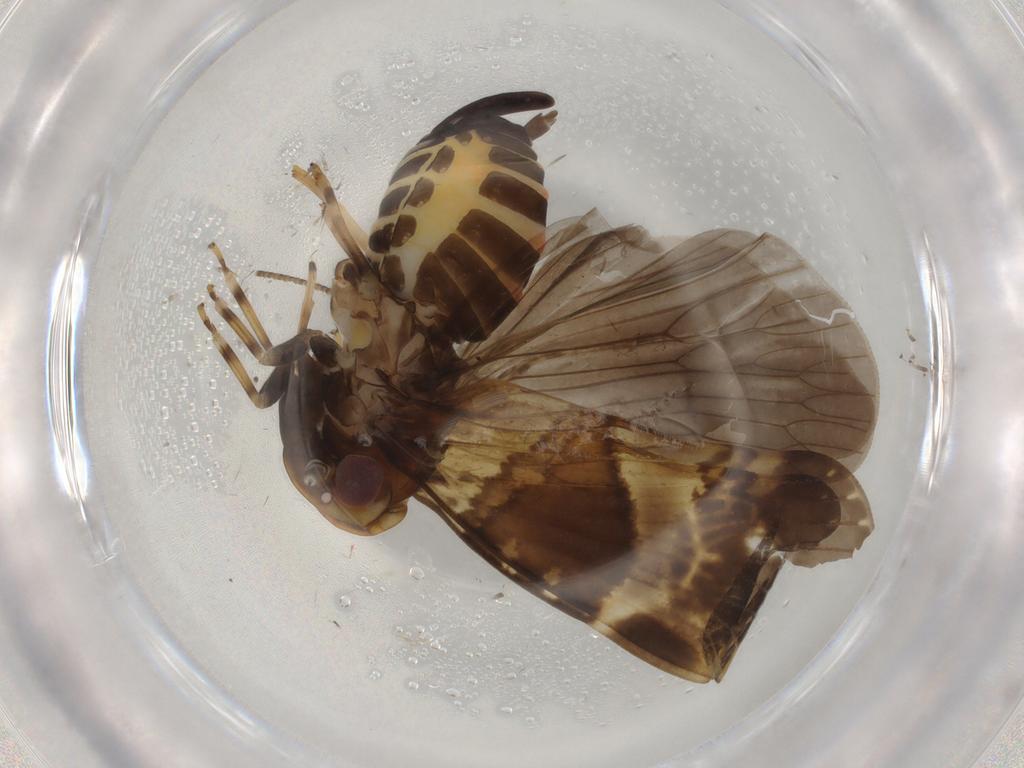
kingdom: Animalia
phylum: Arthropoda
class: Insecta
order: Hemiptera
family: Cixiidae
